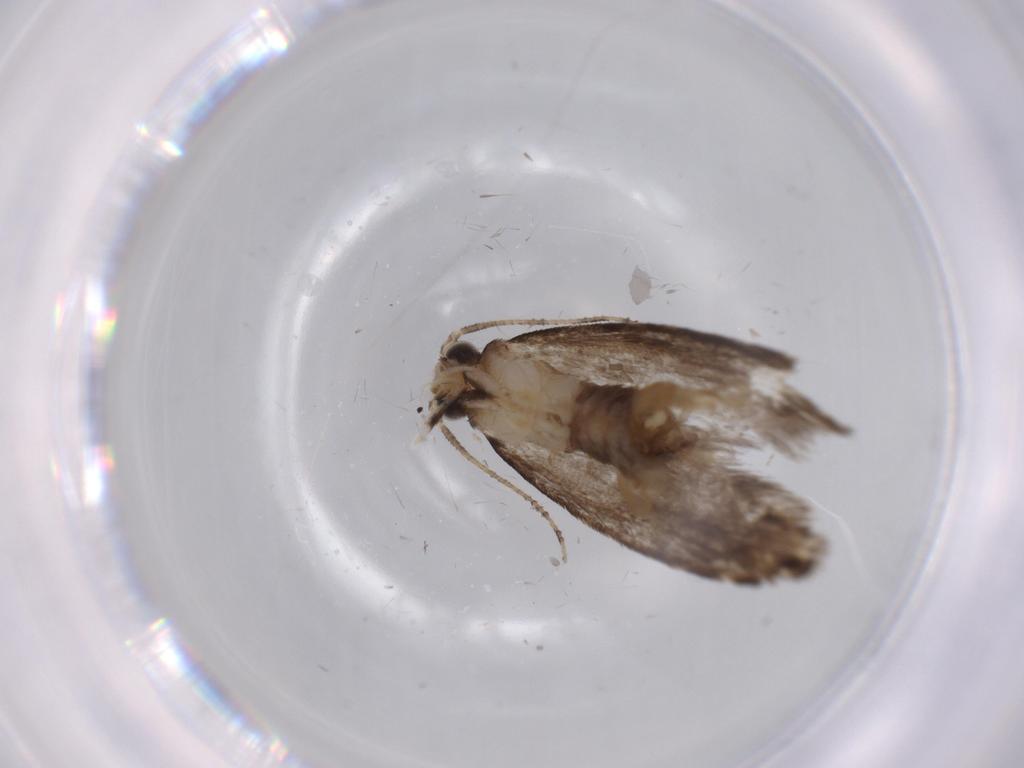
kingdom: Animalia
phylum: Arthropoda
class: Insecta
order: Lepidoptera
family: Tineidae
